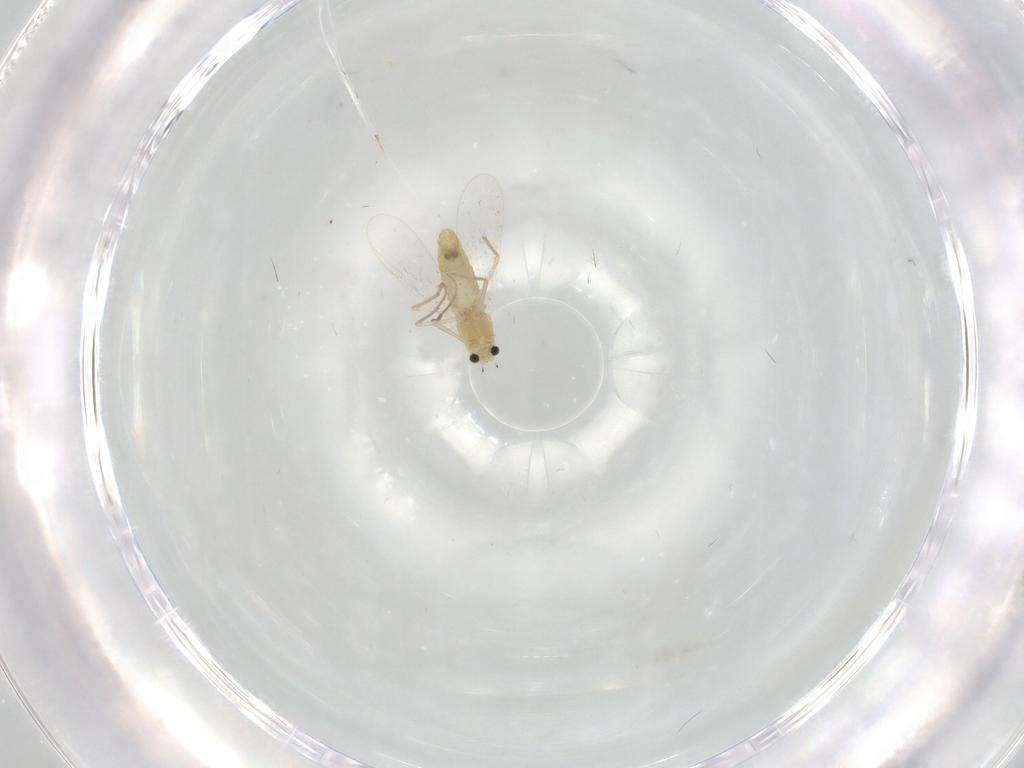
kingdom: Animalia
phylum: Arthropoda
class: Insecta
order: Diptera
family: Chironomidae
